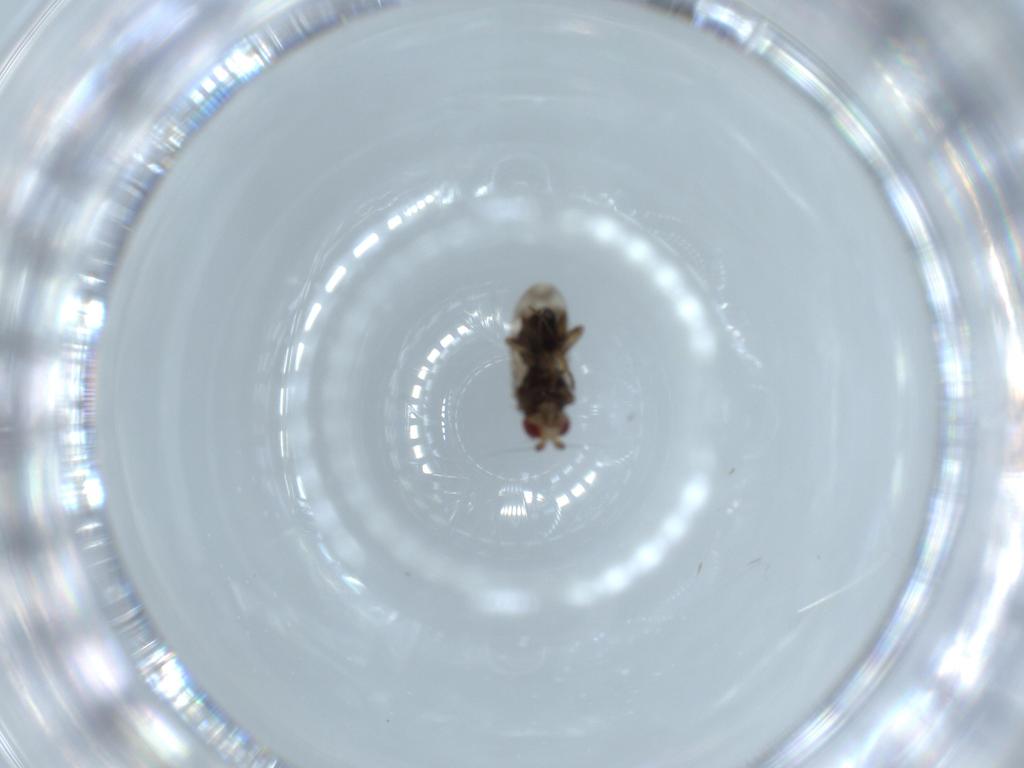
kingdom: Animalia
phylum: Arthropoda
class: Insecta
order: Diptera
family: Sphaeroceridae
